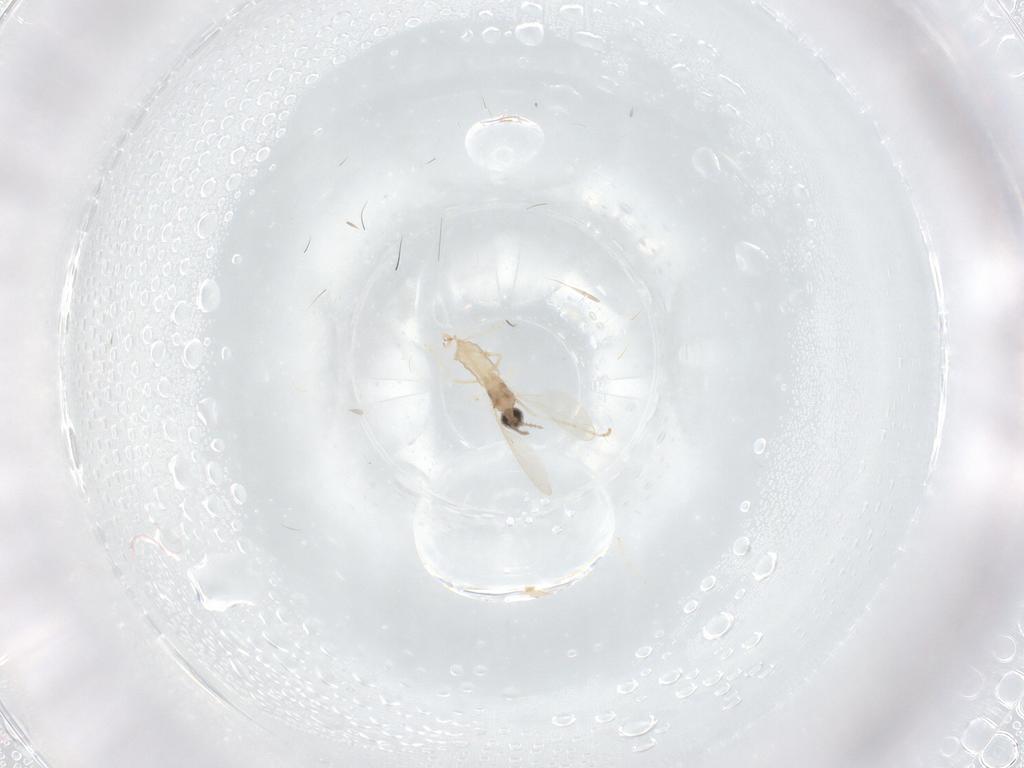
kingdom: Animalia
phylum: Arthropoda
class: Insecta
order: Diptera
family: Cecidomyiidae
